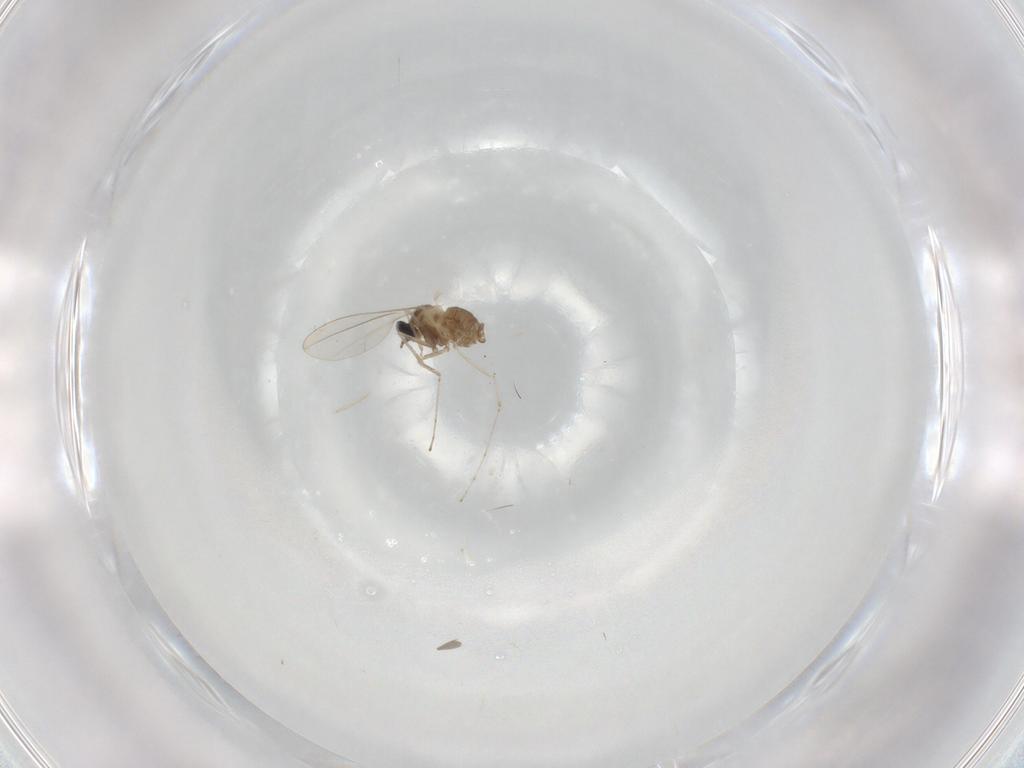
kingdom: Animalia
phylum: Arthropoda
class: Insecta
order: Diptera
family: Cecidomyiidae
